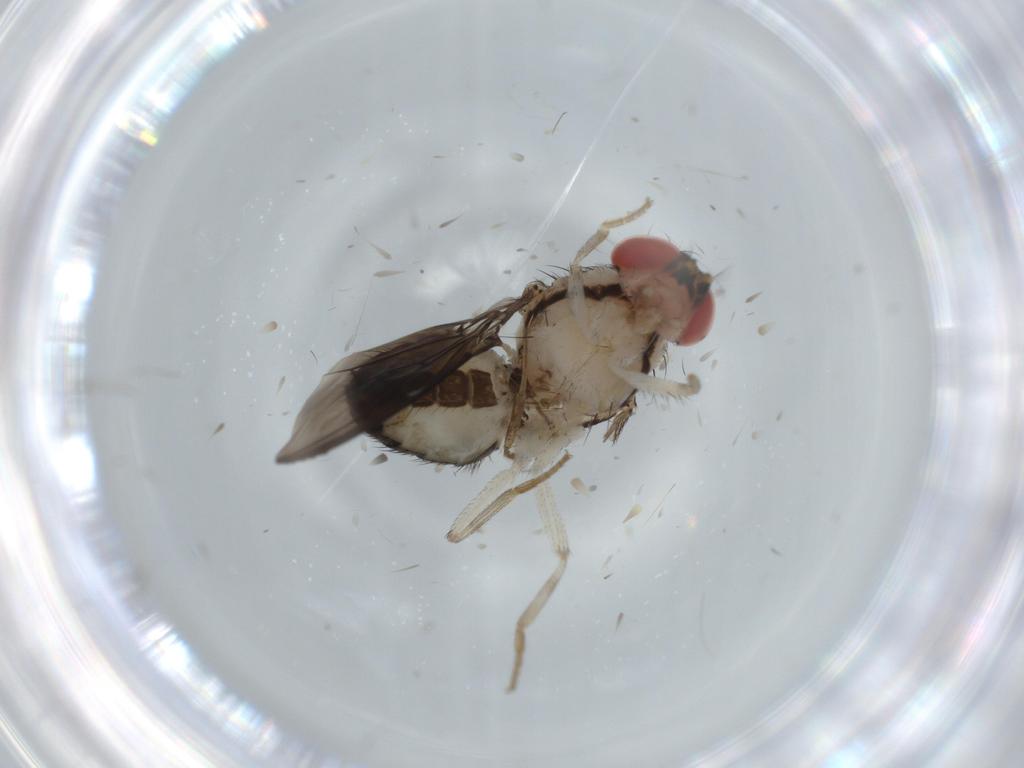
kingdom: Animalia
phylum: Arthropoda
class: Insecta
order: Diptera
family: Drosophilidae
